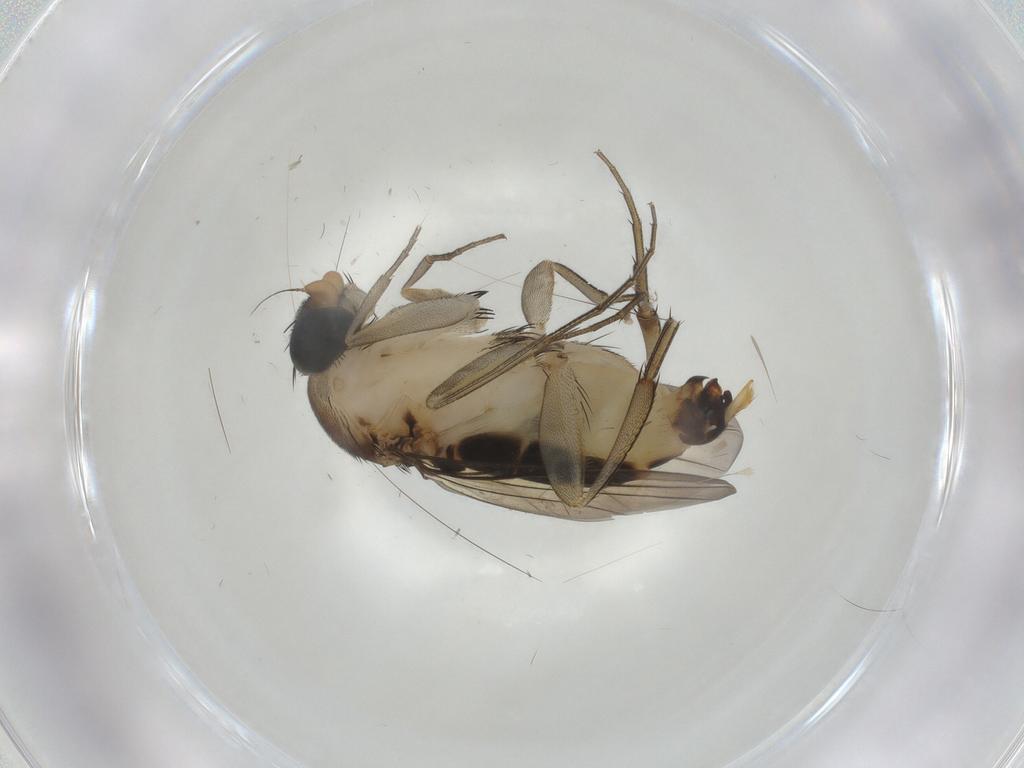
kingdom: Animalia
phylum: Arthropoda
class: Insecta
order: Diptera
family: Phoridae
